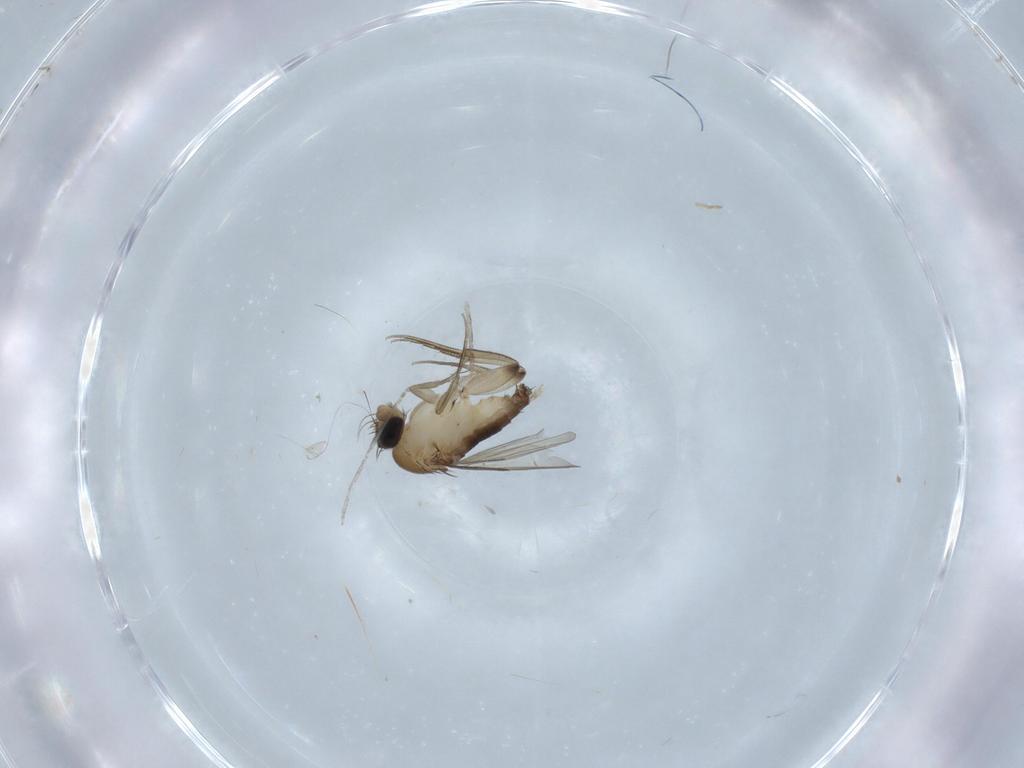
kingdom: Animalia
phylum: Arthropoda
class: Insecta
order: Diptera
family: Phoridae
